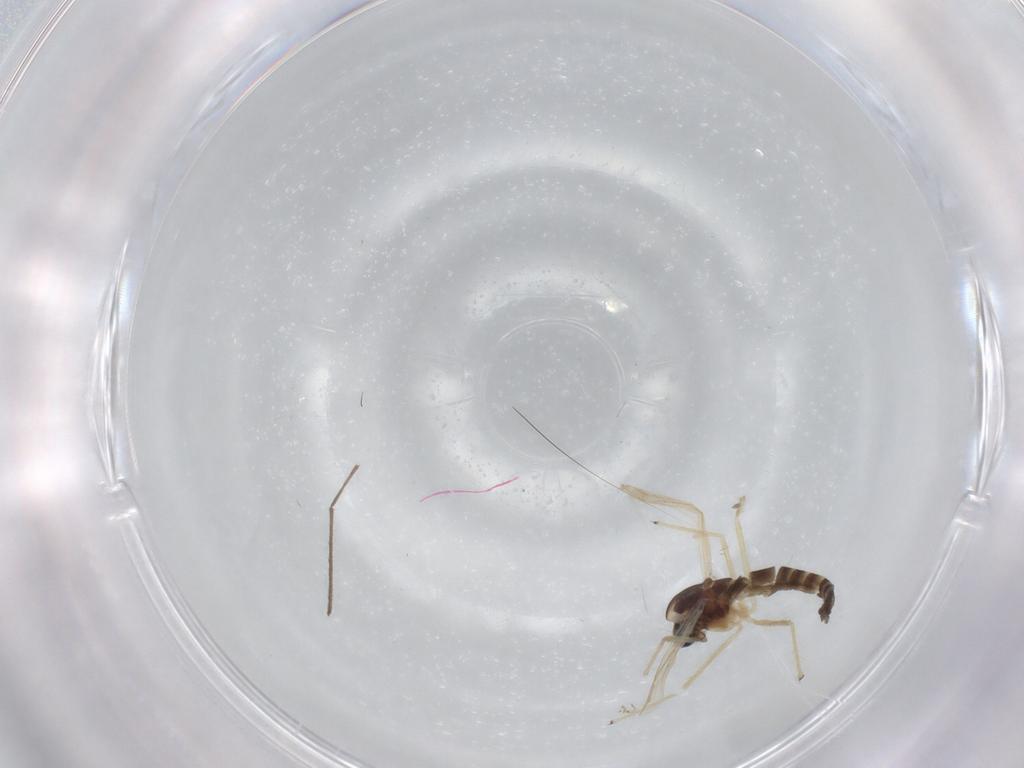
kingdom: Animalia
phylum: Arthropoda
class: Insecta
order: Diptera
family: Chironomidae
